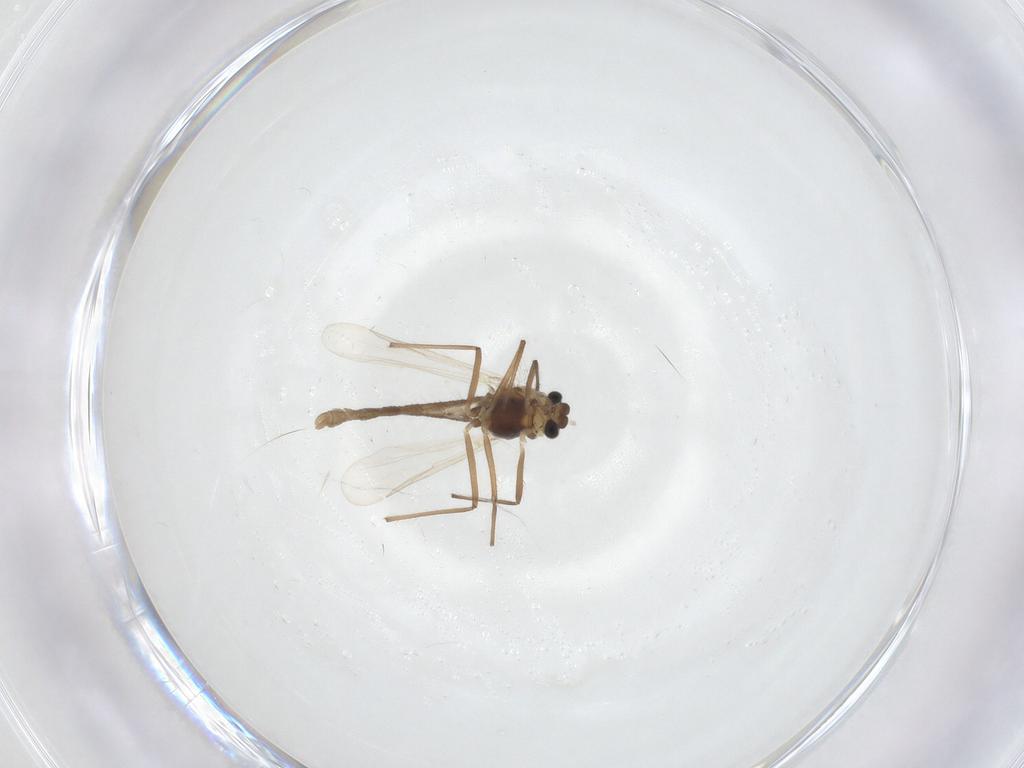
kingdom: Animalia
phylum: Arthropoda
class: Insecta
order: Diptera
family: Chironomidae
